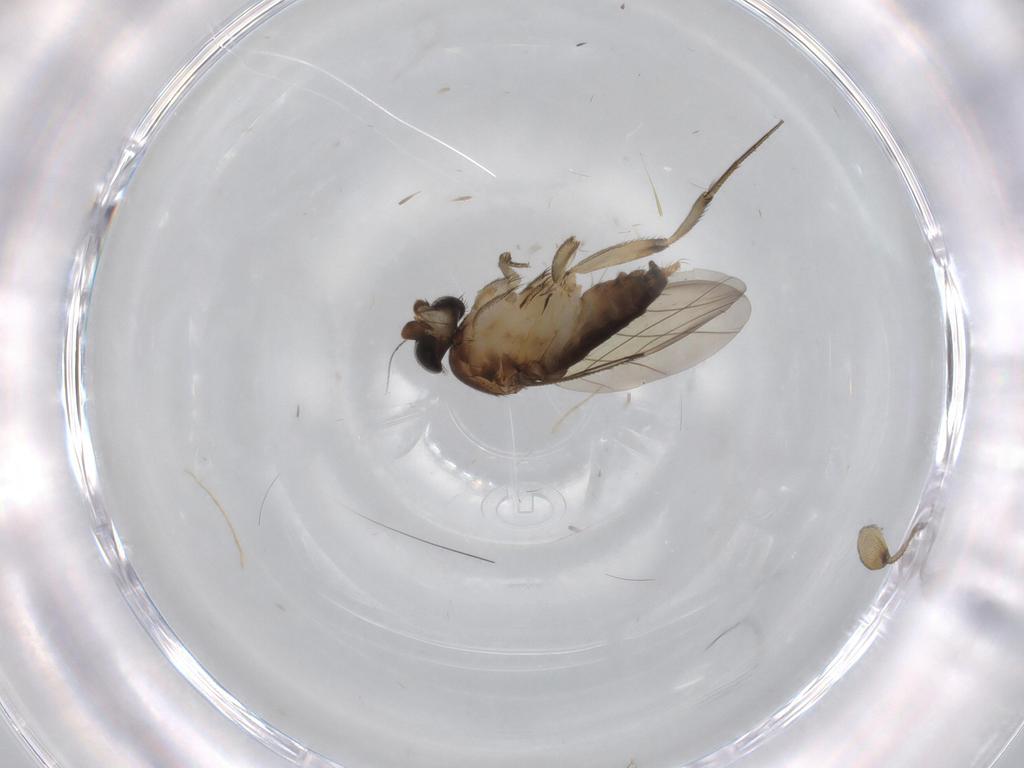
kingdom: Animalia
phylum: Arthropoda
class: Insecta
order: Diptera
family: Phoridae
